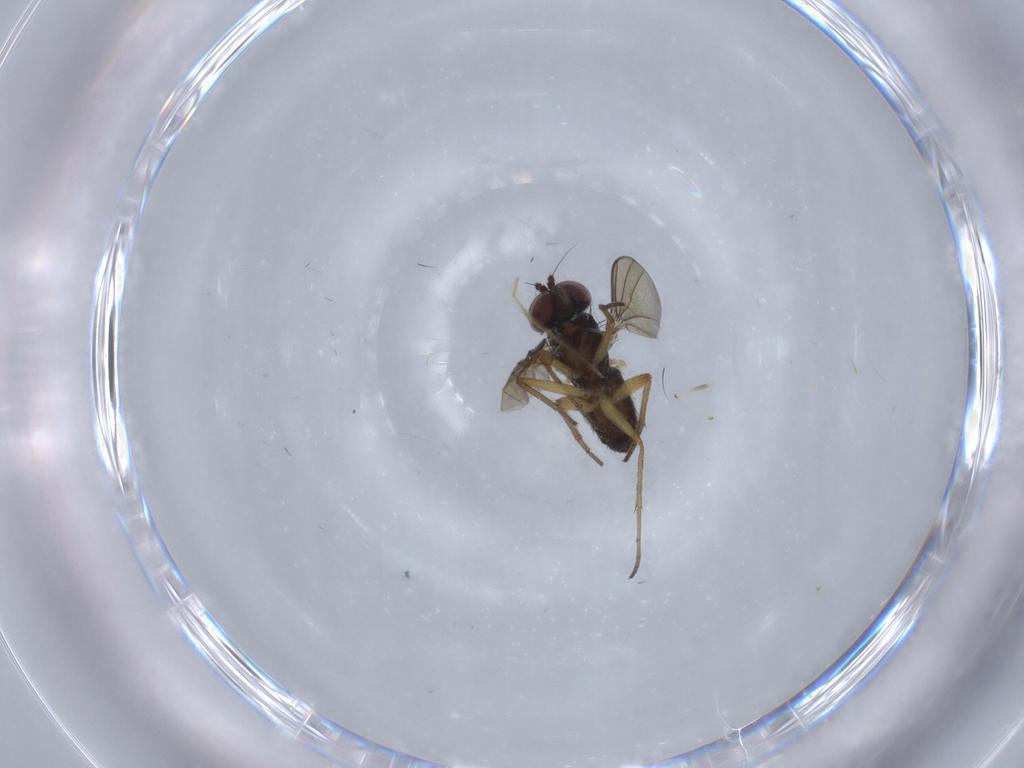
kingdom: Animalia
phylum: Arthropoda
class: Insecta
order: Diptera
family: Dolichopodidae
